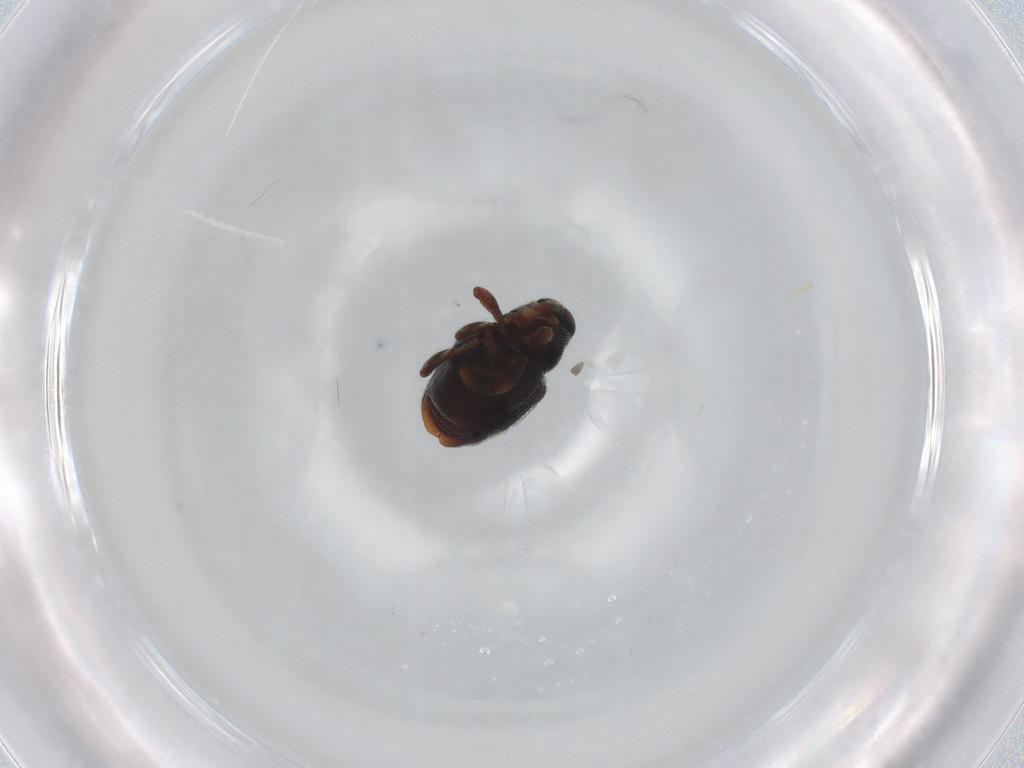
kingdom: Animalia
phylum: Arthropoda
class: Insecta
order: Coleoptera
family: Curculionidae
